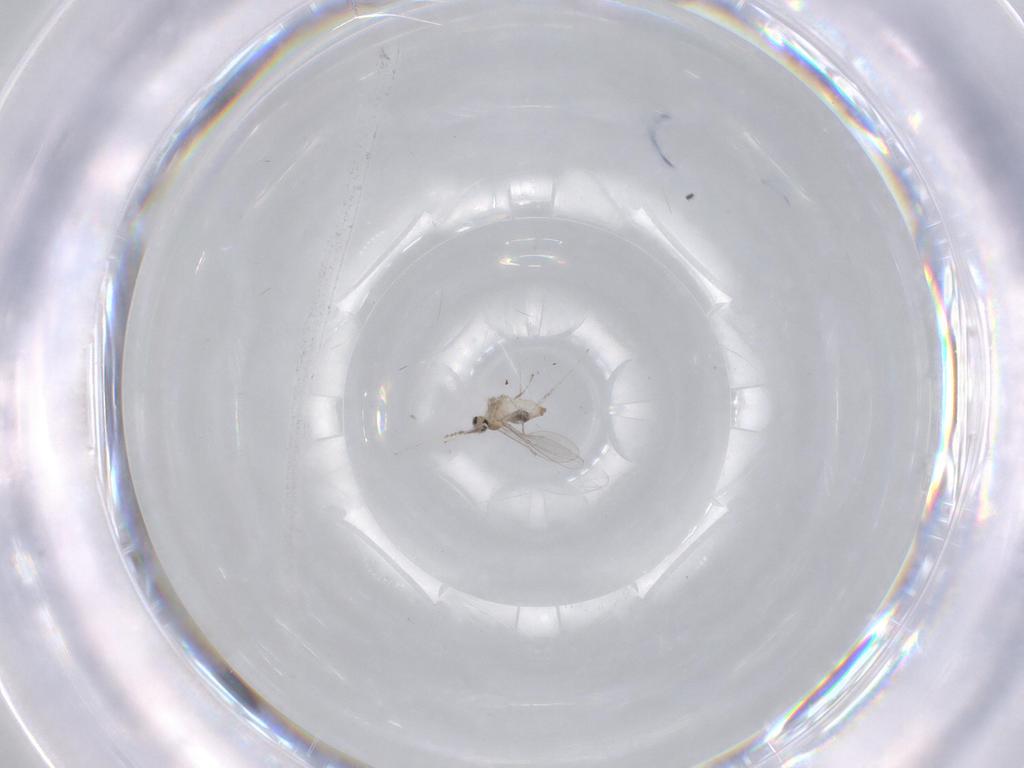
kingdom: Animalia
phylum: Arthropoda
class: Insecta
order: Diptera
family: Cecidomyiidae
